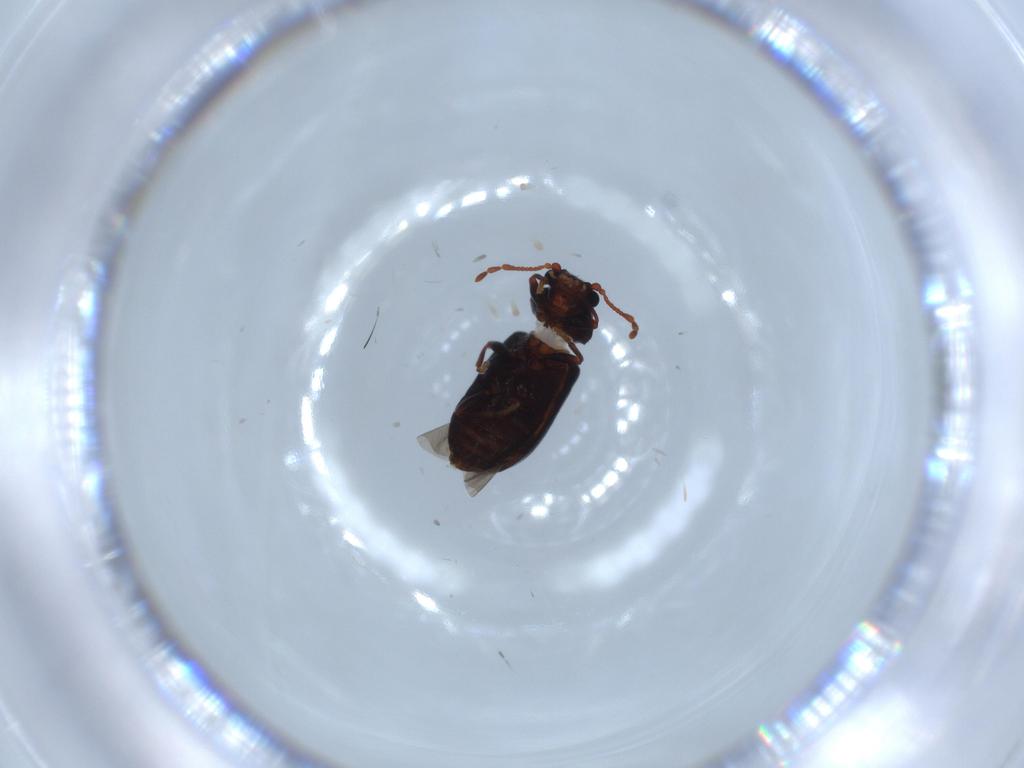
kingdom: Animalia
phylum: Arthropoda
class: Insecta
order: Coleoptera
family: Ptinidae
